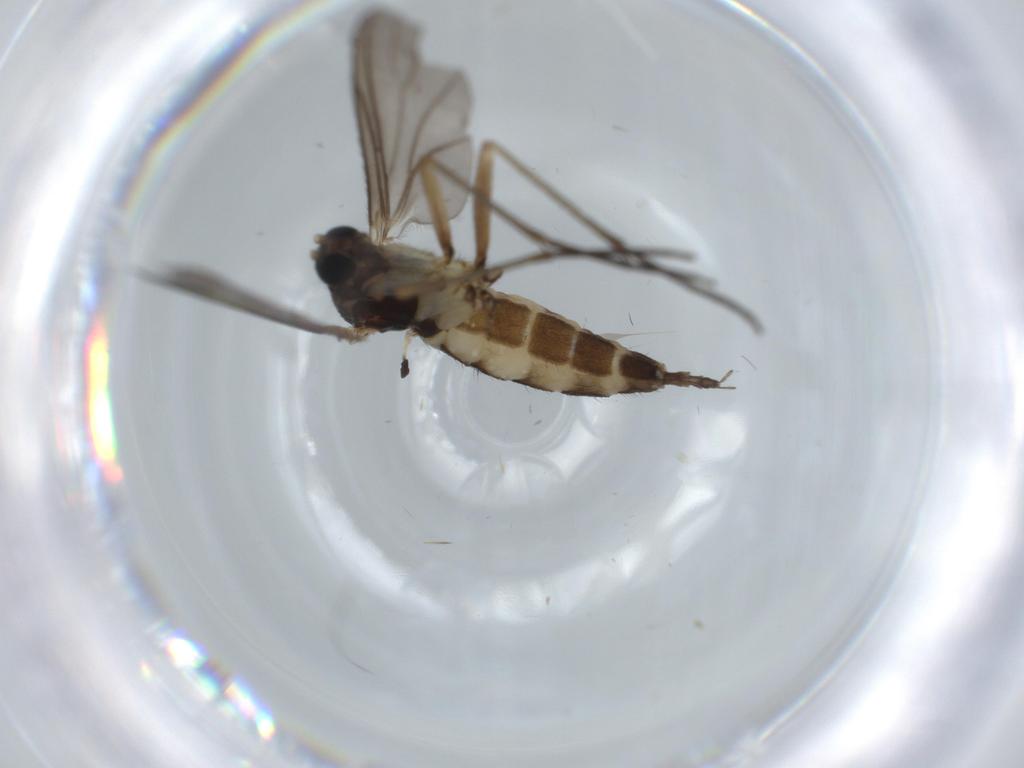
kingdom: Animalia
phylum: Arthropoda
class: Insecta
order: Diptera
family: Sciaridae
